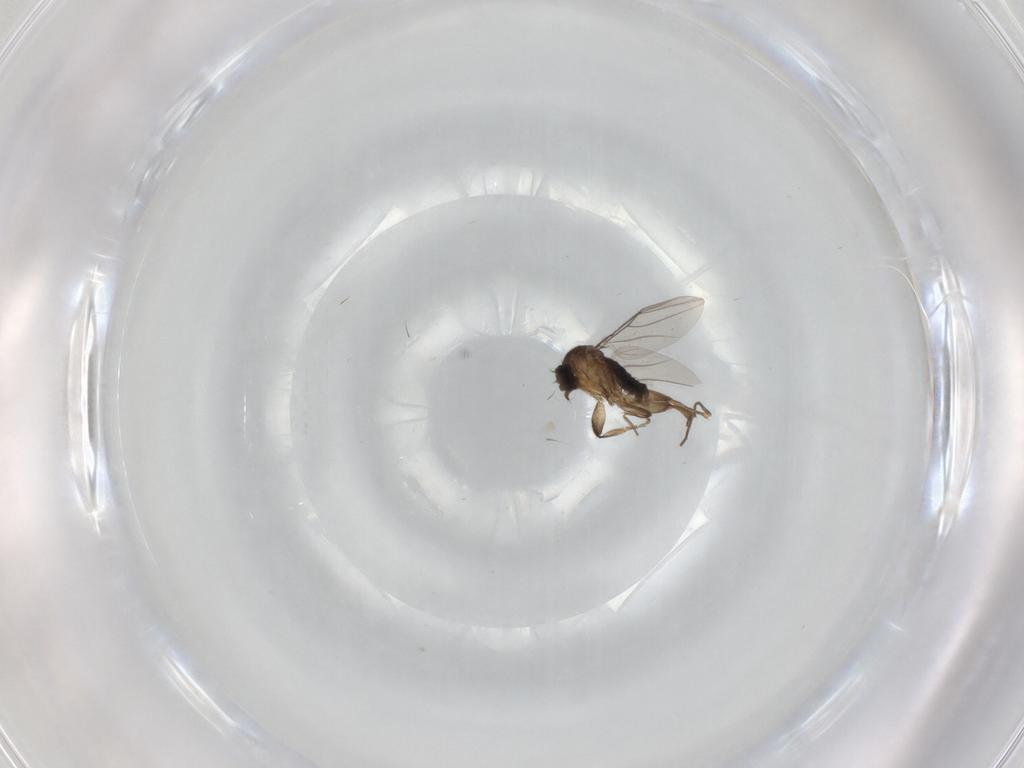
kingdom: Animalia
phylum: Arthropoda
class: Insecta
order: Diptera
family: Phoridae
